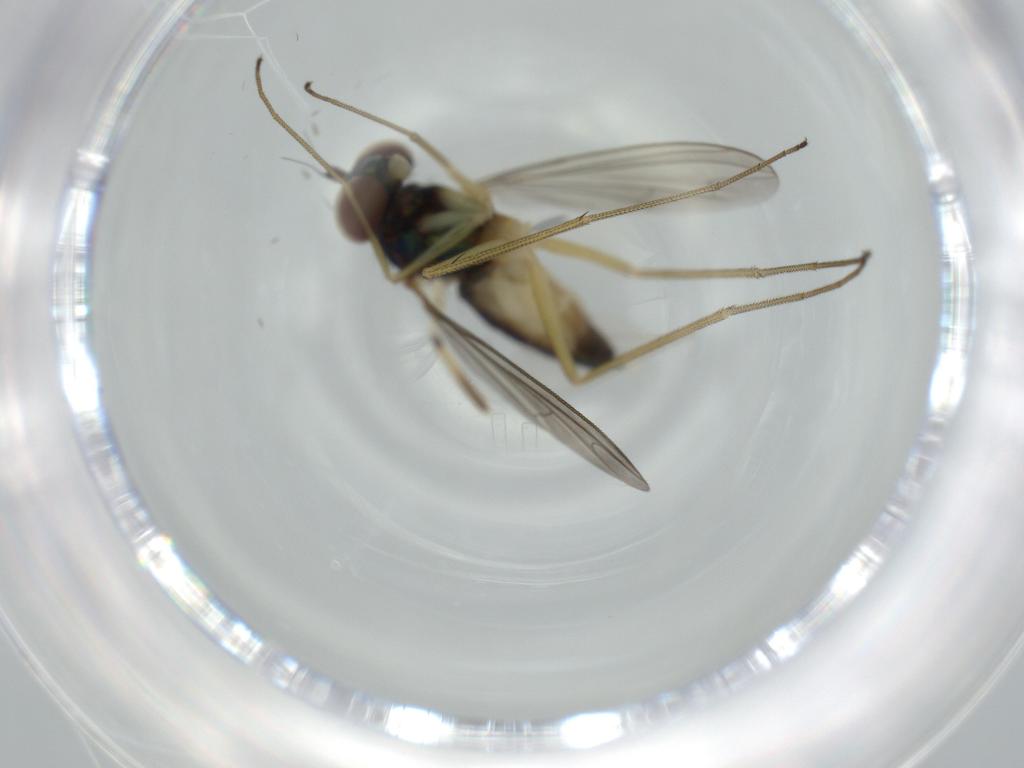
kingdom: Animalia
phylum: Arthropoda
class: Insecta
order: Diptera
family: Dolichopodidae
